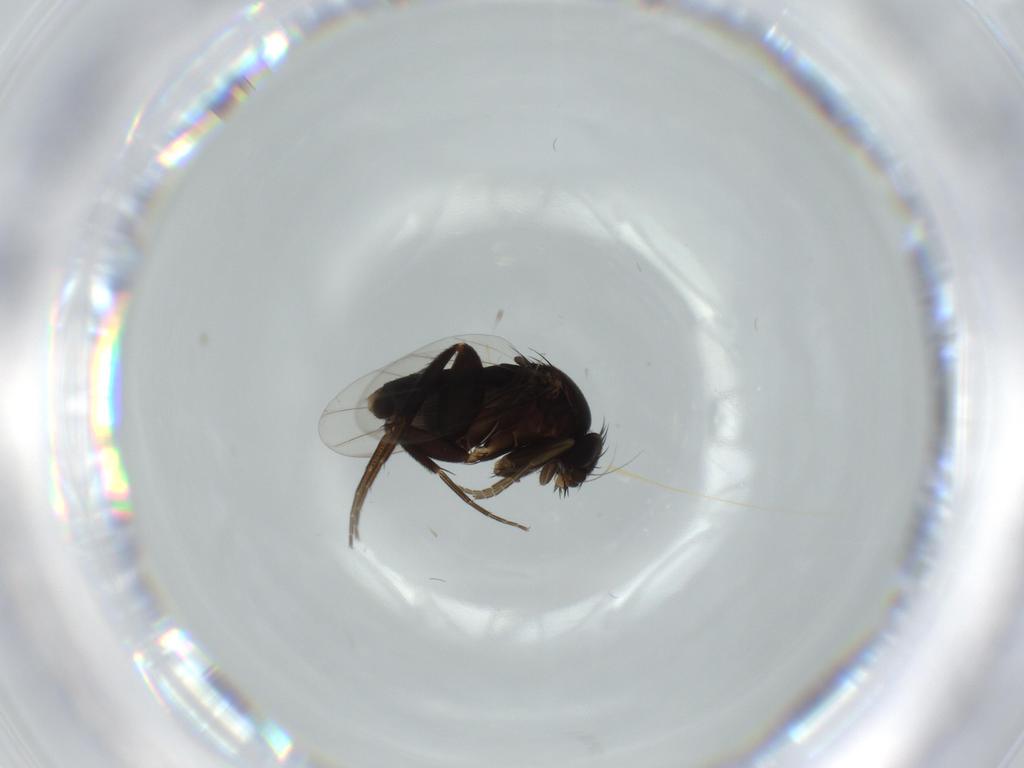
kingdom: Animalia
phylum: Arthropoda
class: Insecta
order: Diptera
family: Phoridae
